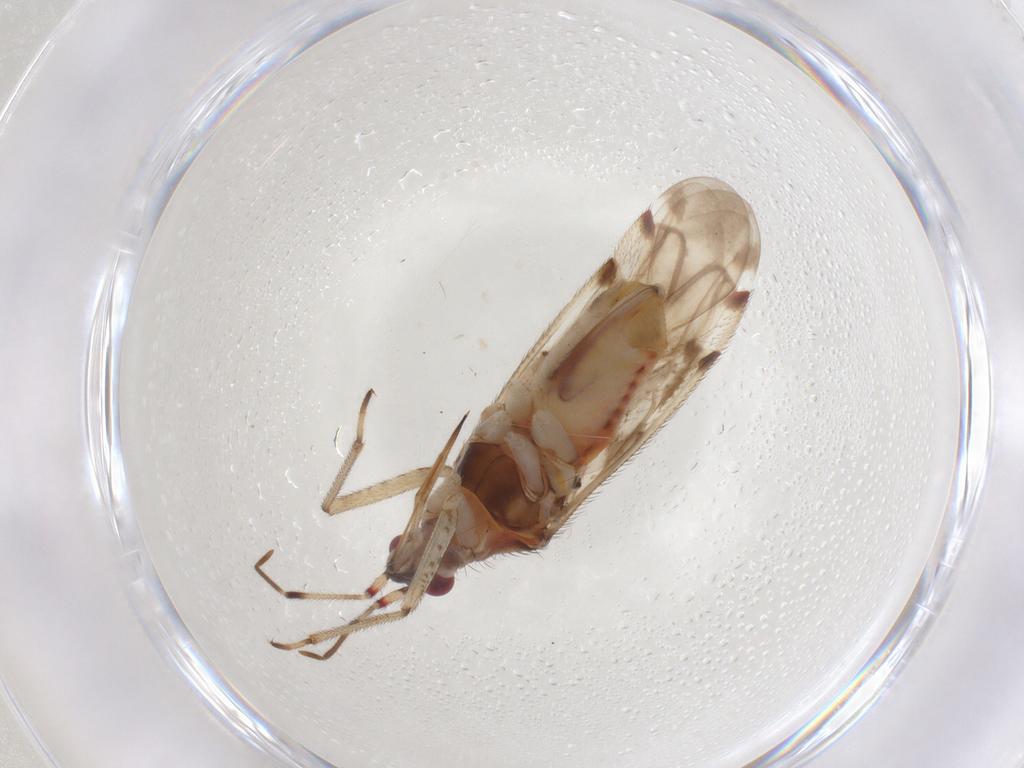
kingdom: Animalia
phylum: Arthropoda
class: Insecta
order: Hemiptera
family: Miridae
